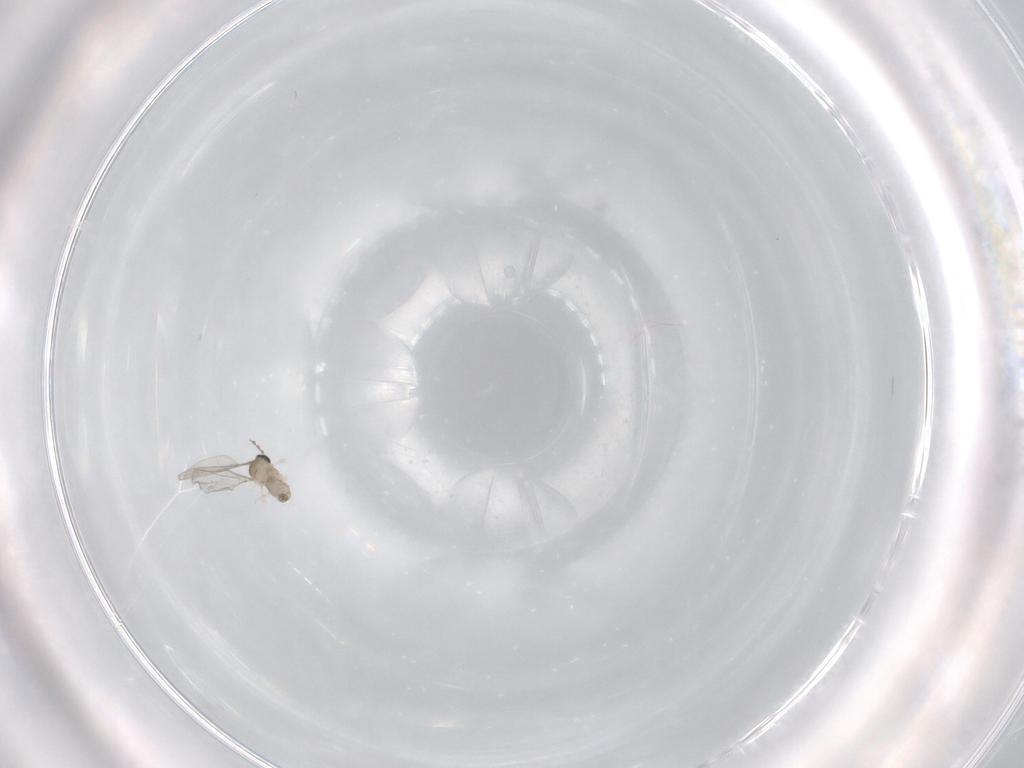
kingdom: Animalia
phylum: Arthropoda
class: Insecta
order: Diptera
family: Cecidomyiidae
